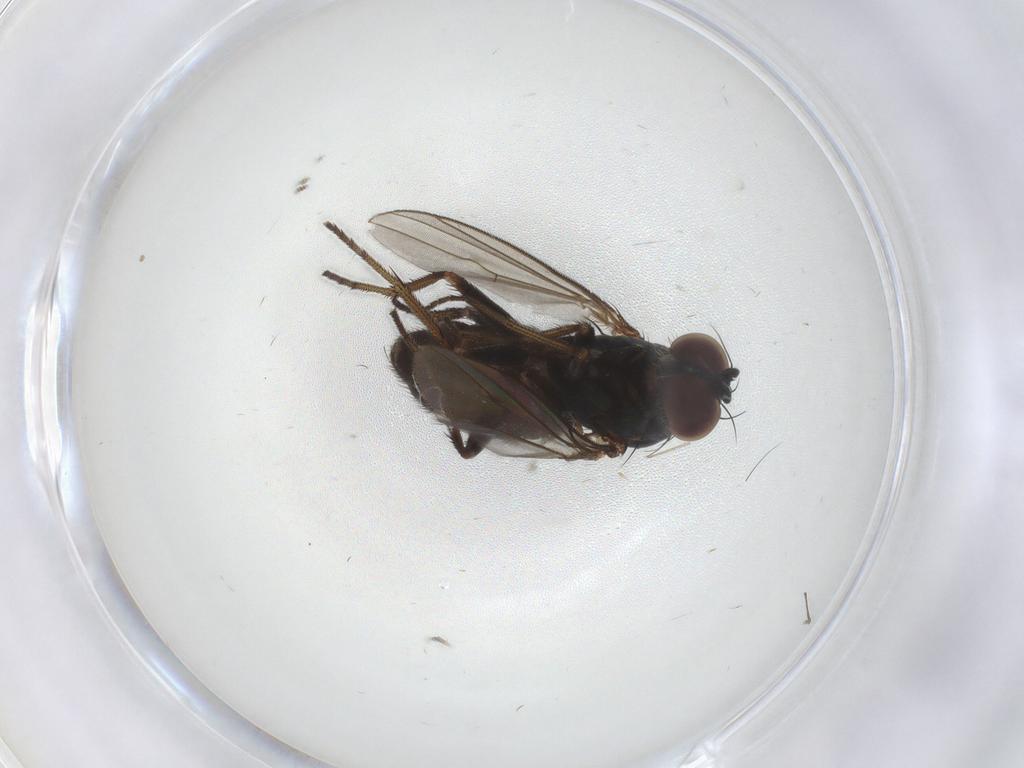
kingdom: Animalia
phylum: Arthropoda
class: Insecta
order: Diptera
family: Dolichopodidae
